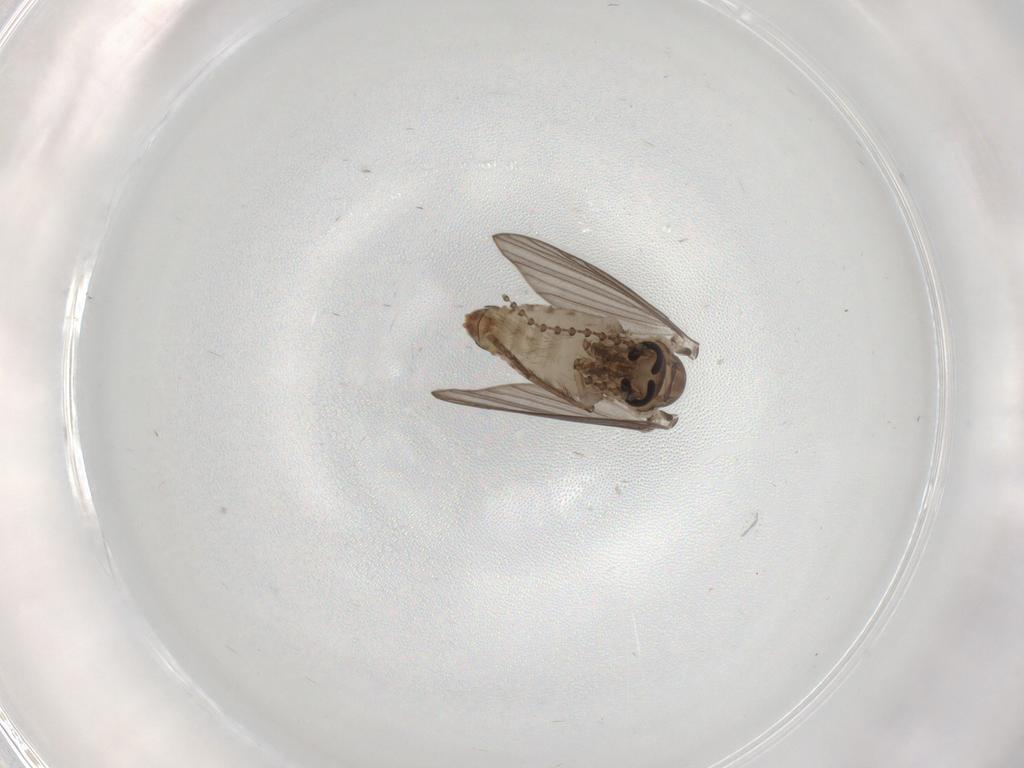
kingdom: Animalia
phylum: Arthropoda
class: Insecta
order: Diptera
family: Psychodidae
